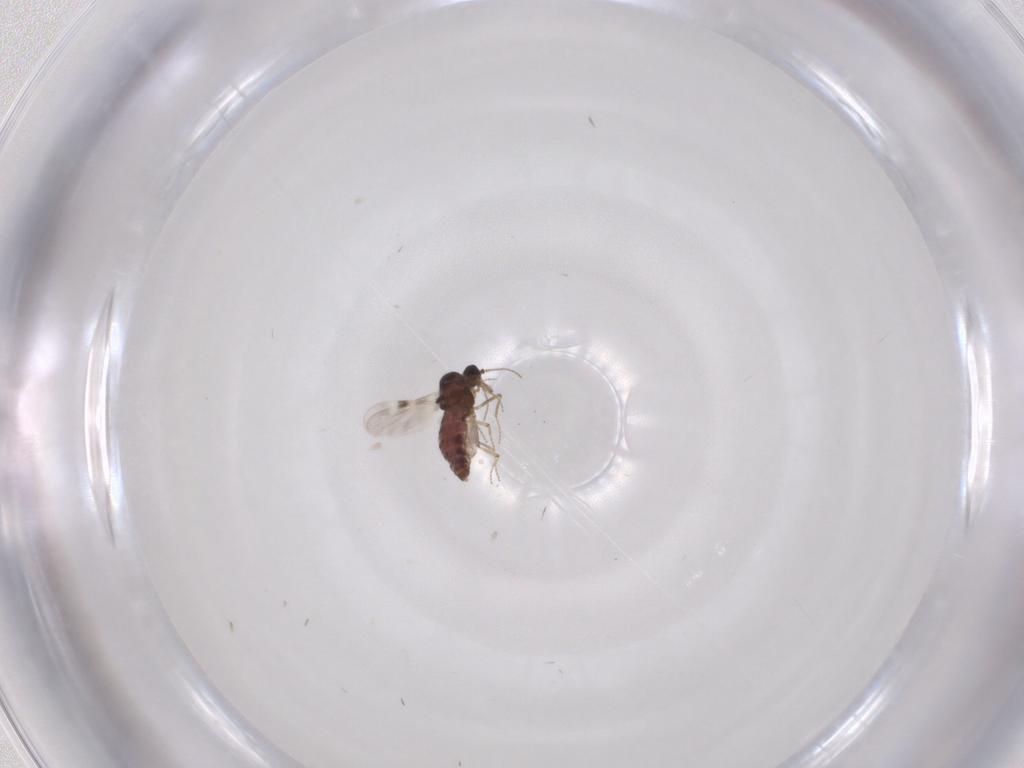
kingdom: Animalia
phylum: Arthropoda
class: Insecta
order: Diptera
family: Phoridae
